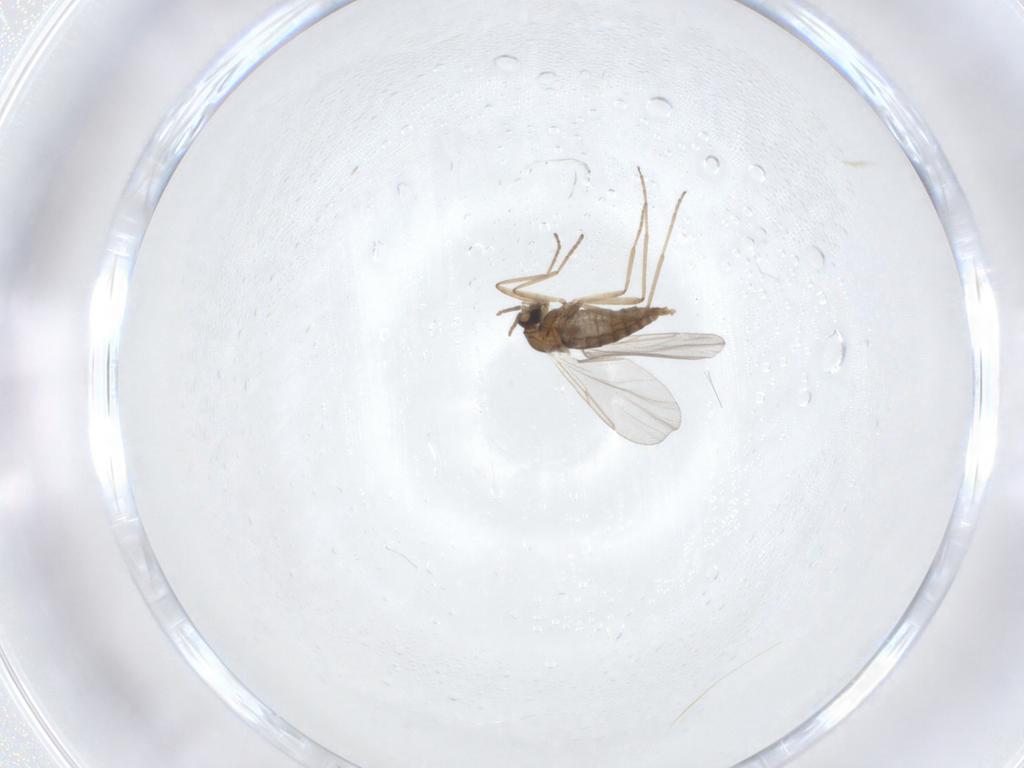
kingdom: Animalia
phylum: Arthropoda
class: Insecta
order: Diptera
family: Cecidomyiidae
